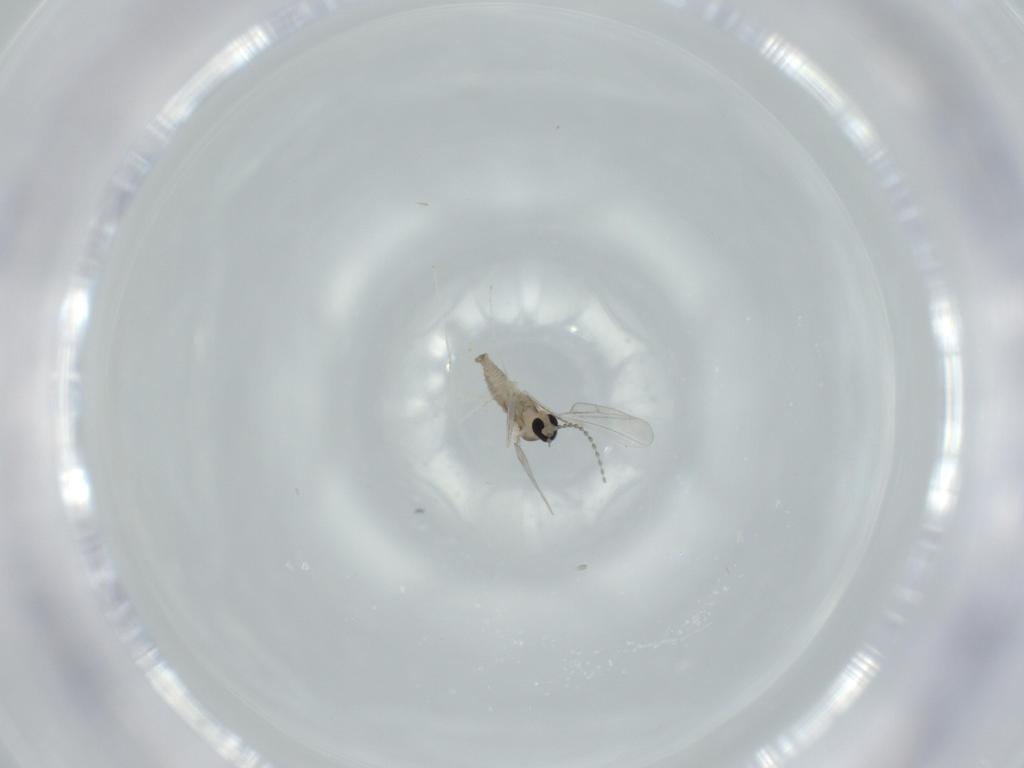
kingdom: Animalia
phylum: Arthropoda
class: Insecta
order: Diptera
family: Cecidomyiidae
